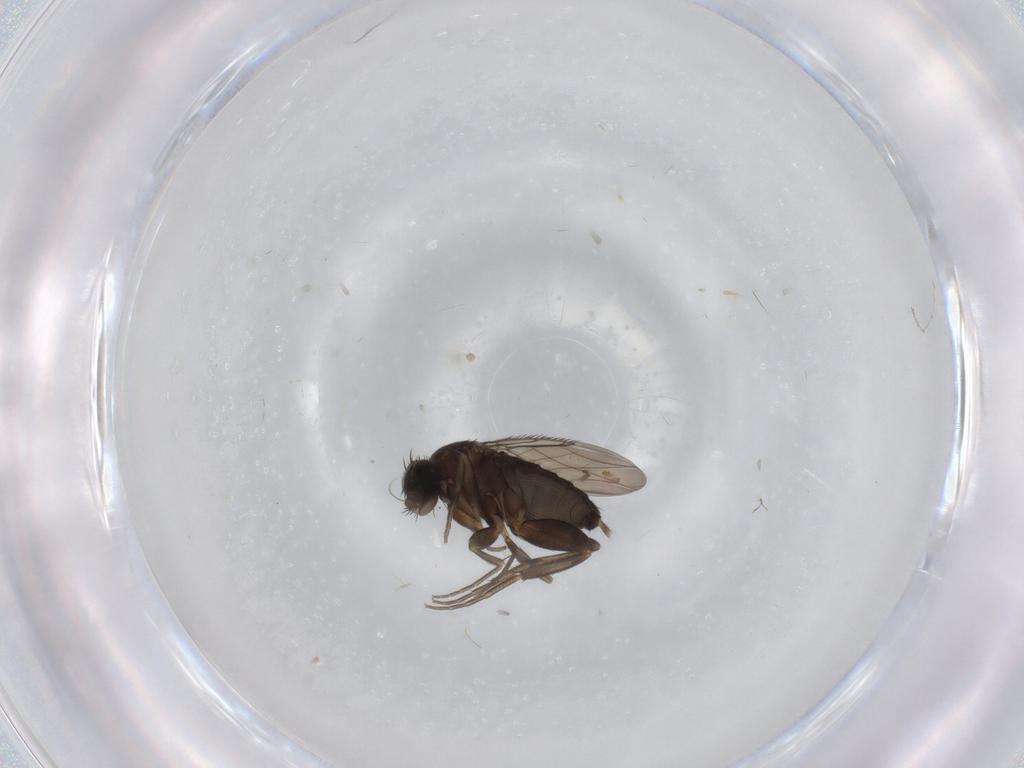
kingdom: Animalia
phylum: Arthropoda
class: Insecta
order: Diptera
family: Phoridae
